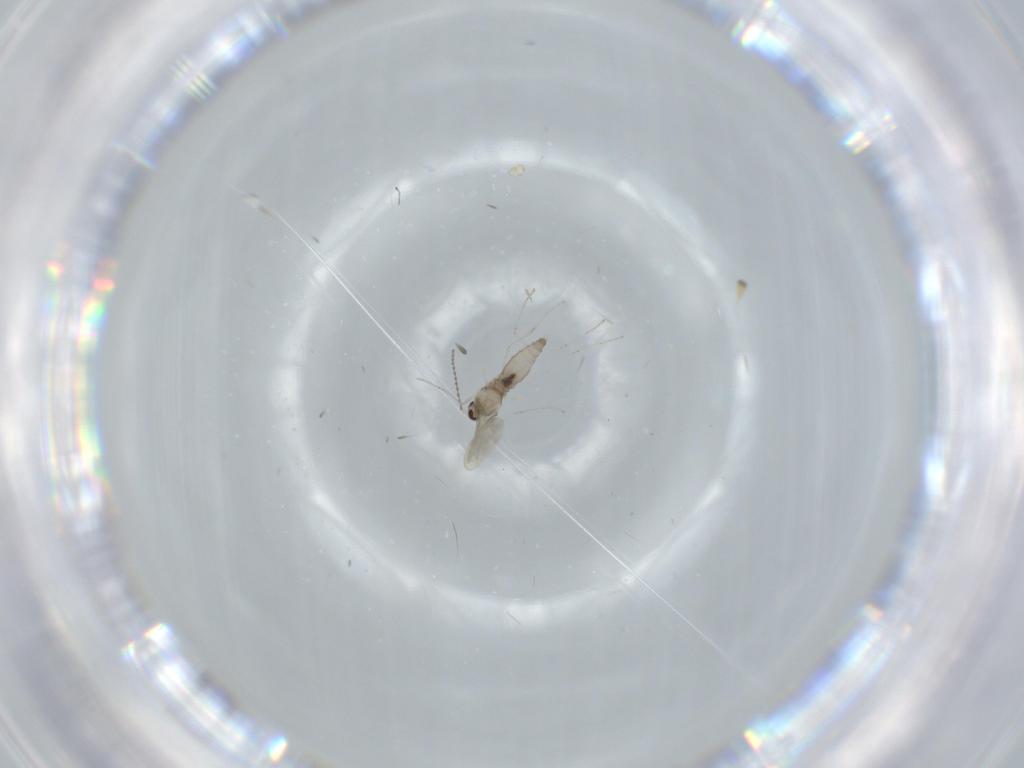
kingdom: Animalia
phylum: Arthropoda
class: Insecta
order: Diptera
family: Cecidomyiidae
